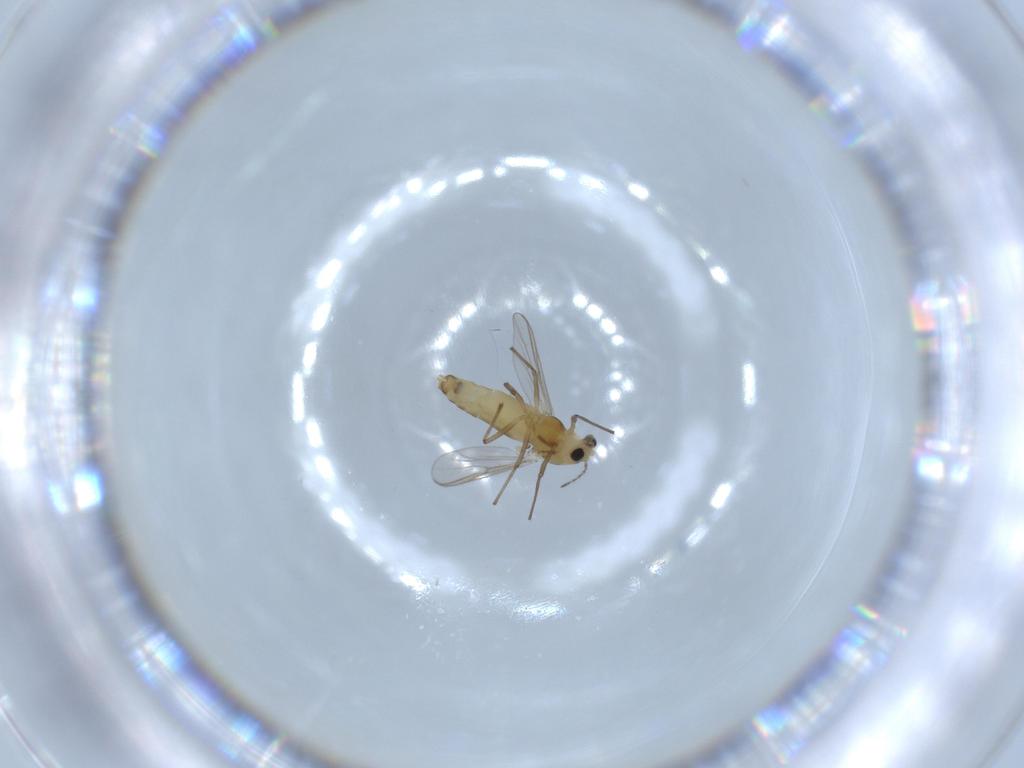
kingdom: Animalia
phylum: Arthropoda
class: Insecta
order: Diptera
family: Chironomidae
